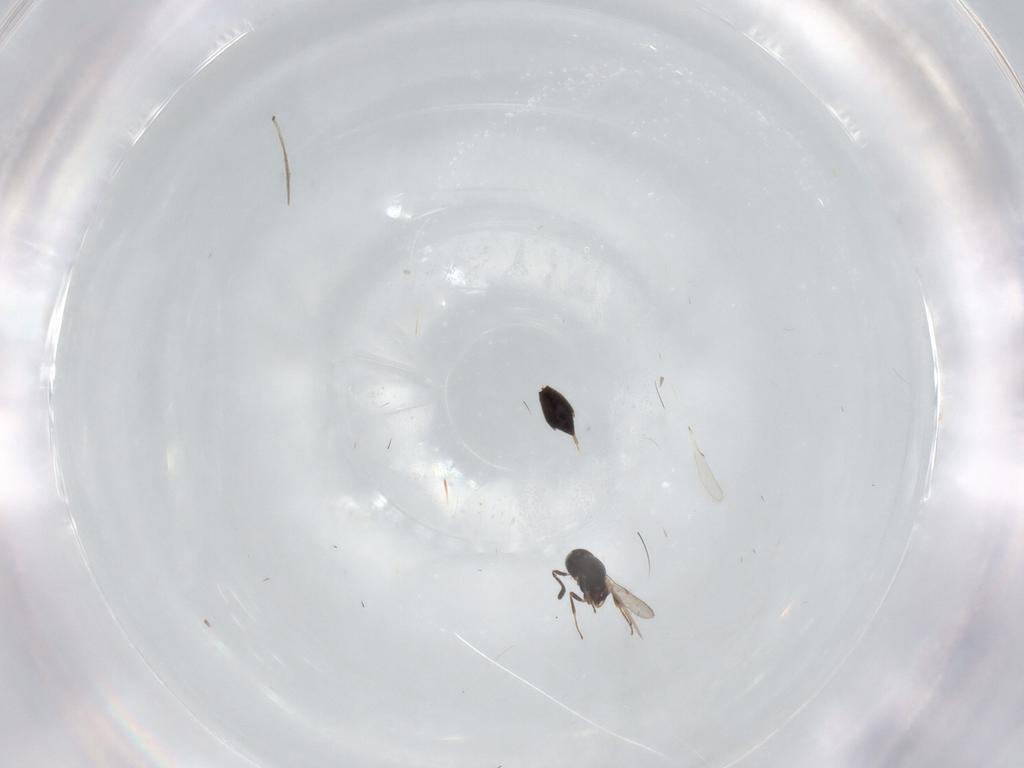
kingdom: Animalia
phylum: Arthropoda
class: Insecta
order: Hymenoptera
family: Scelionidae
